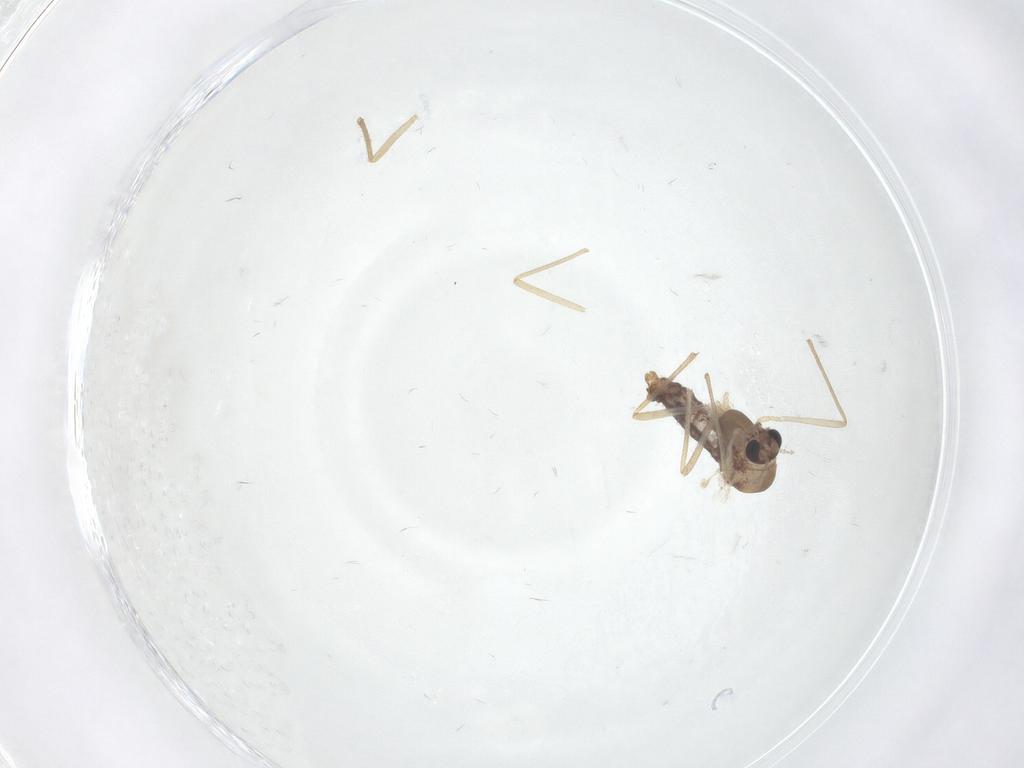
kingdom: Animalia
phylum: Arthropoda
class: Insecta
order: Diptera
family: Chironomidae
